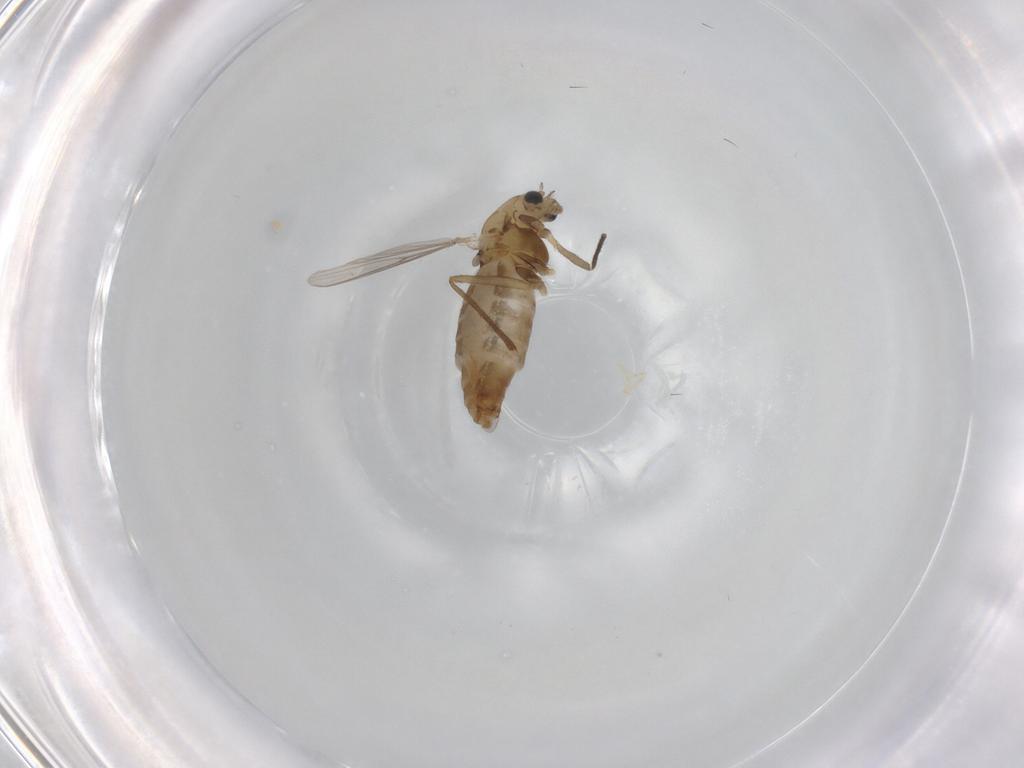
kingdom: Animalia
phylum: Arthropoda
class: Insecta
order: Diptera
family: Chironomidae
